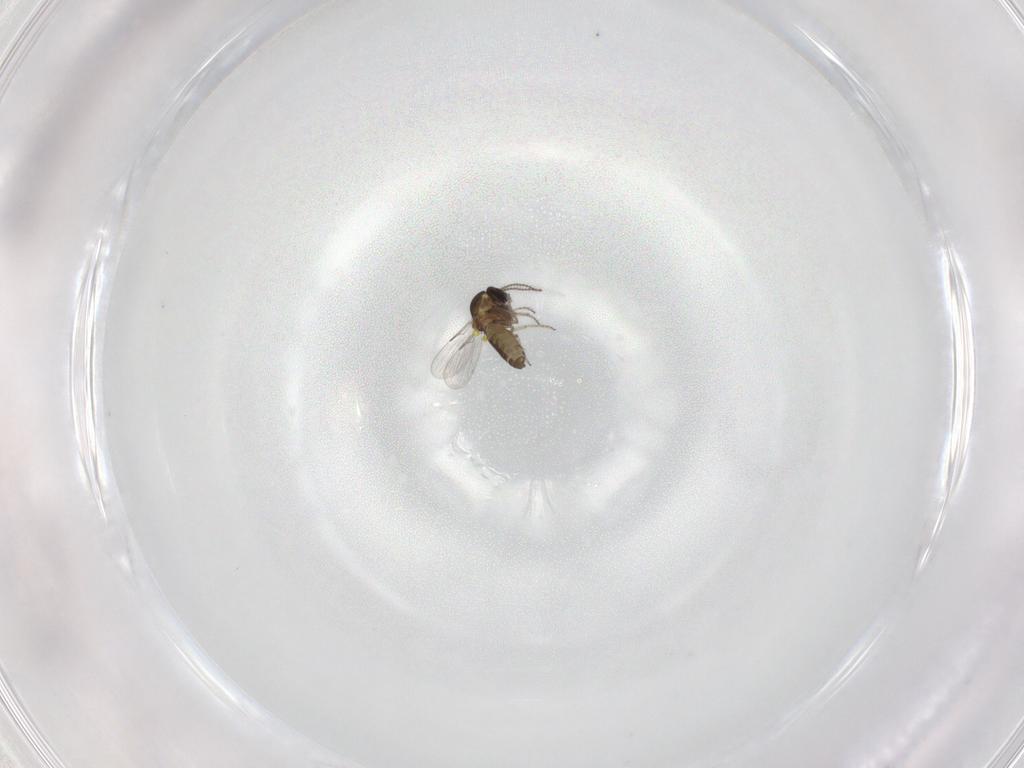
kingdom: Animalia
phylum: Arthropoda
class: Insecta
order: Diptera
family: Ceratopogonidae
